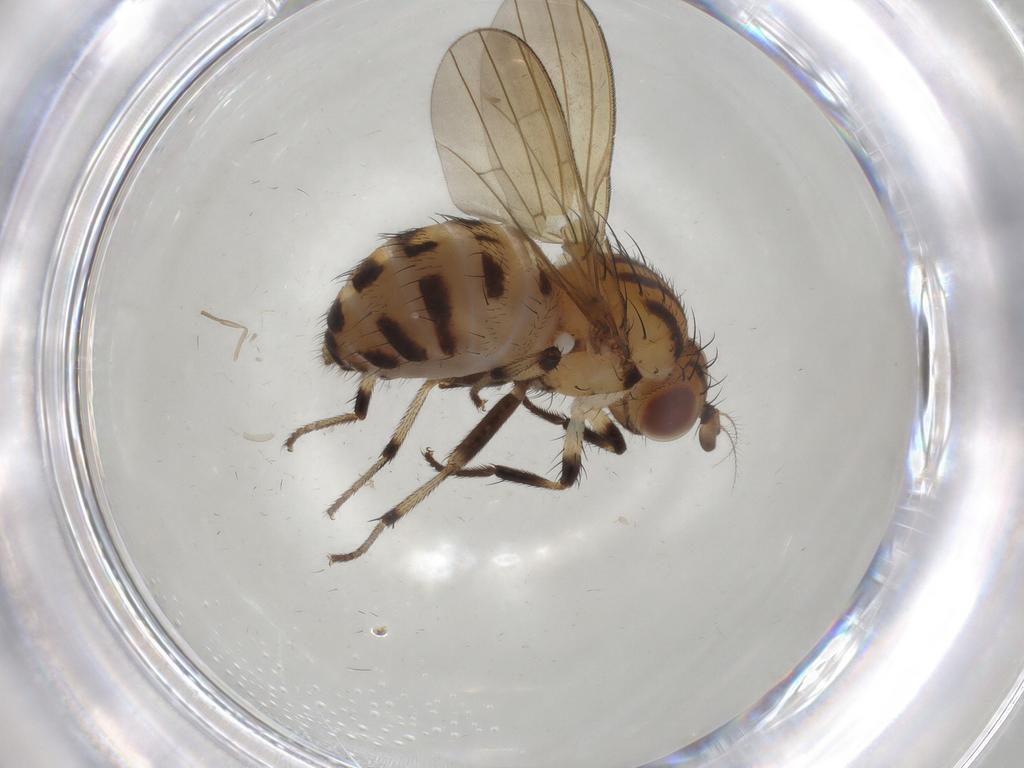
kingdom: Animalia
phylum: Arthropoda
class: Insecta
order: Diptera
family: Lauxaniidae
